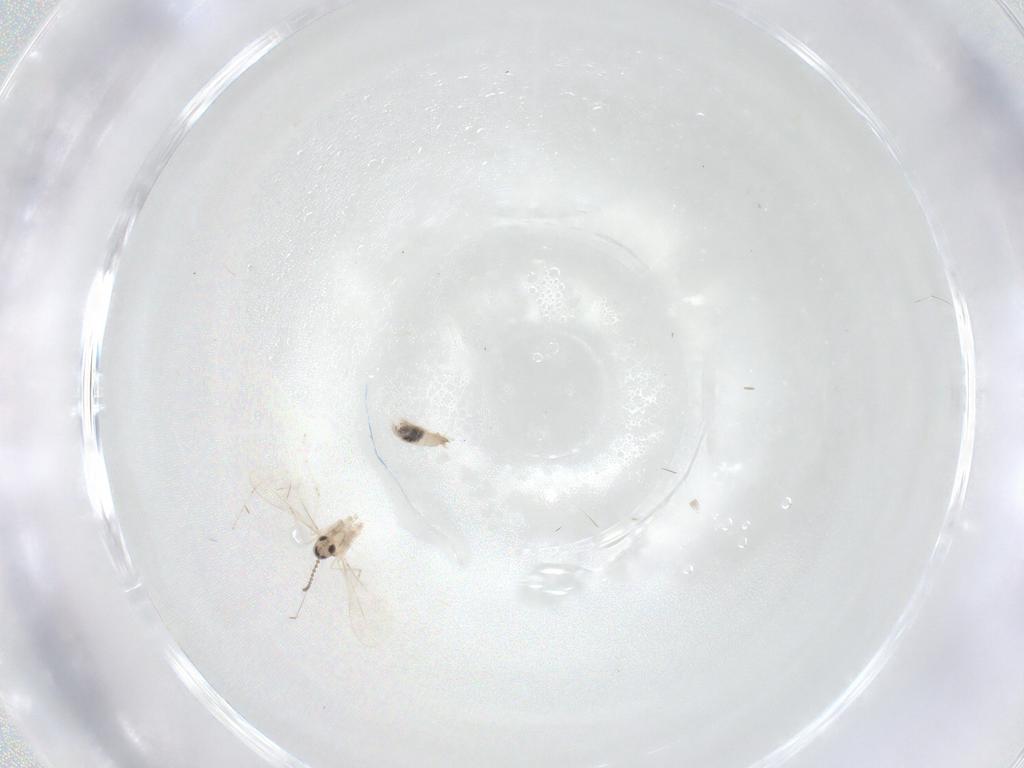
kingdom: Animalia
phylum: Arthropoda
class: Insecta
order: Diptera
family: Cecidomyiidae
